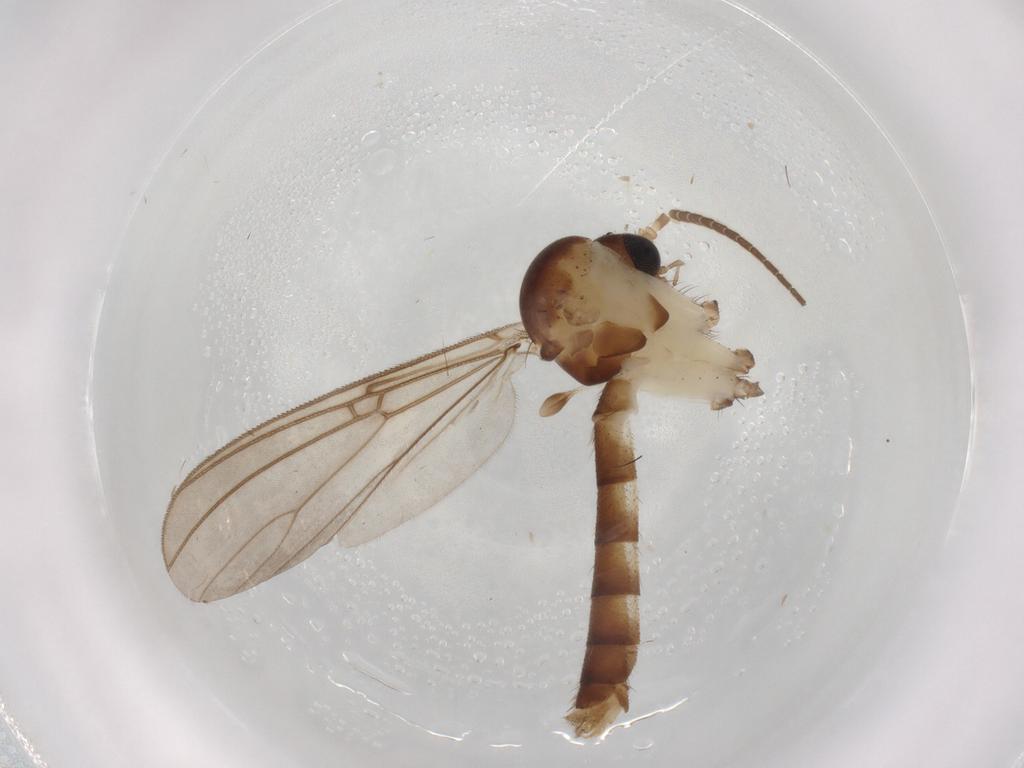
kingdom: Animalia
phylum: Arthropoda
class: Insecta
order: Diptera
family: Mycetophilidae
